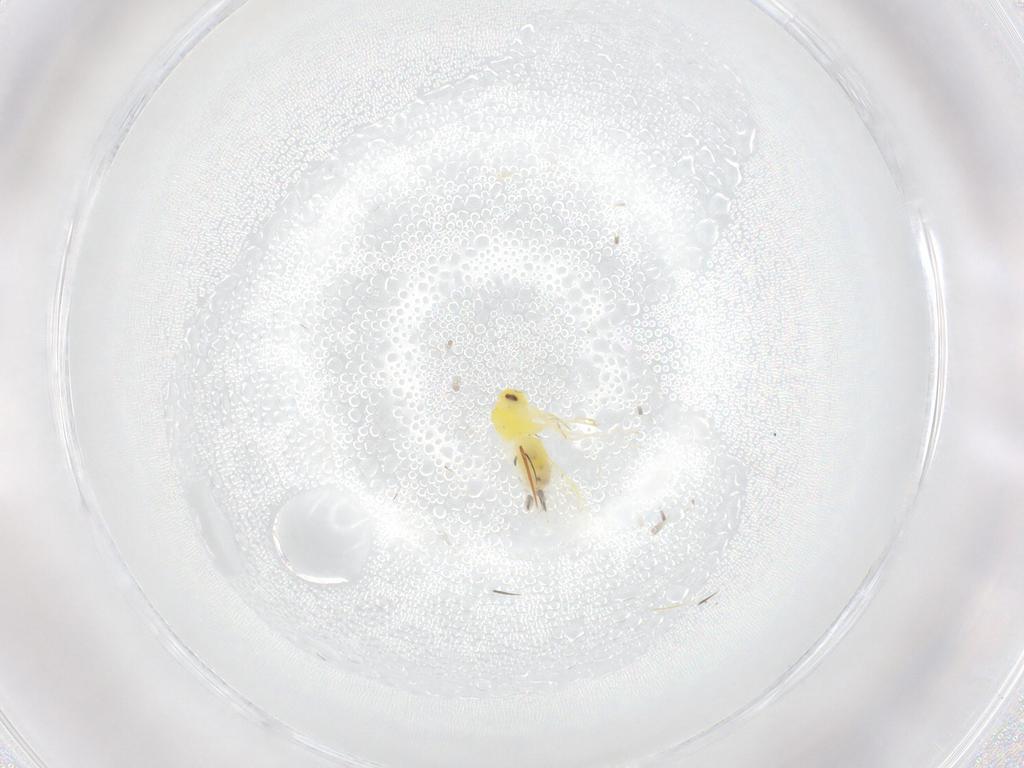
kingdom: Animalia
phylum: Arthropoda
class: Insecta
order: Hemiptera
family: Aleyrodidae
